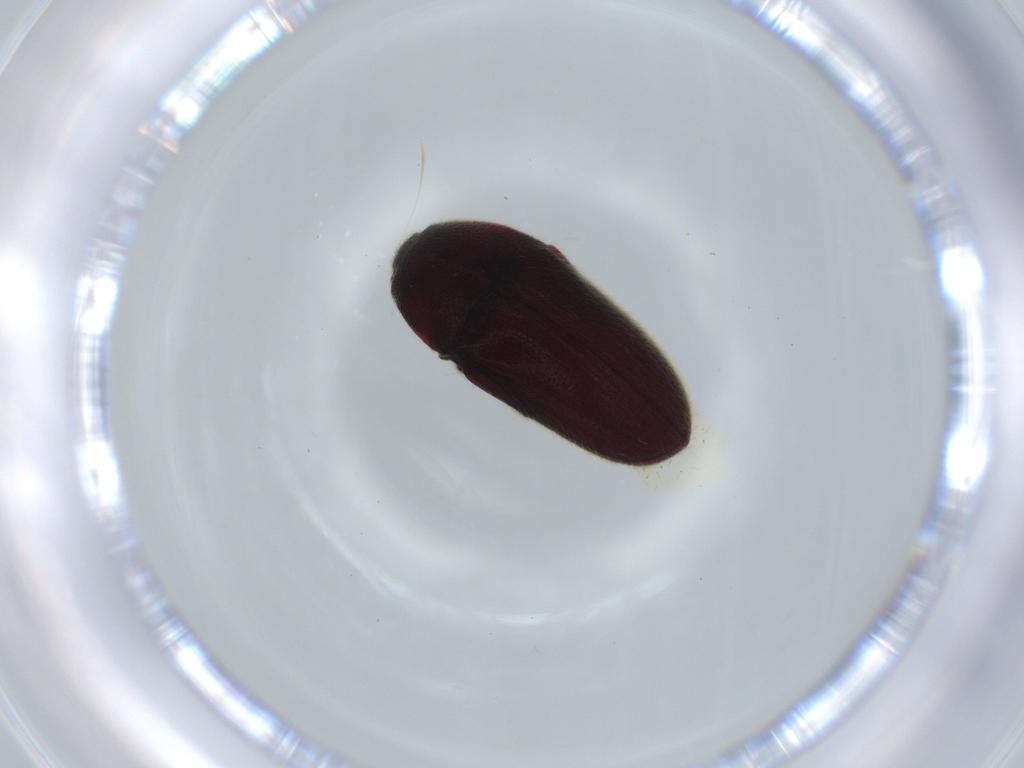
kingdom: Animalia
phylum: Arthropoda
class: Insecta
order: Coleoptera
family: Throscidae
